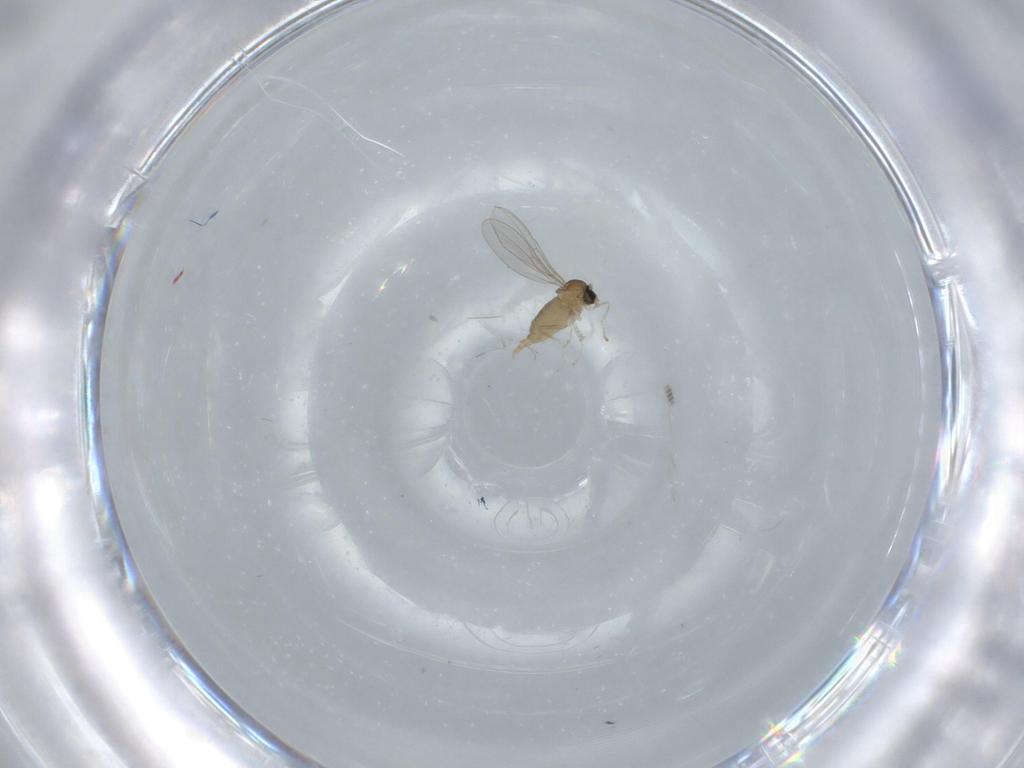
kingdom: Animalia
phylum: Arthropoda
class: Insecta
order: Diptera
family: Cecidomyiidae
